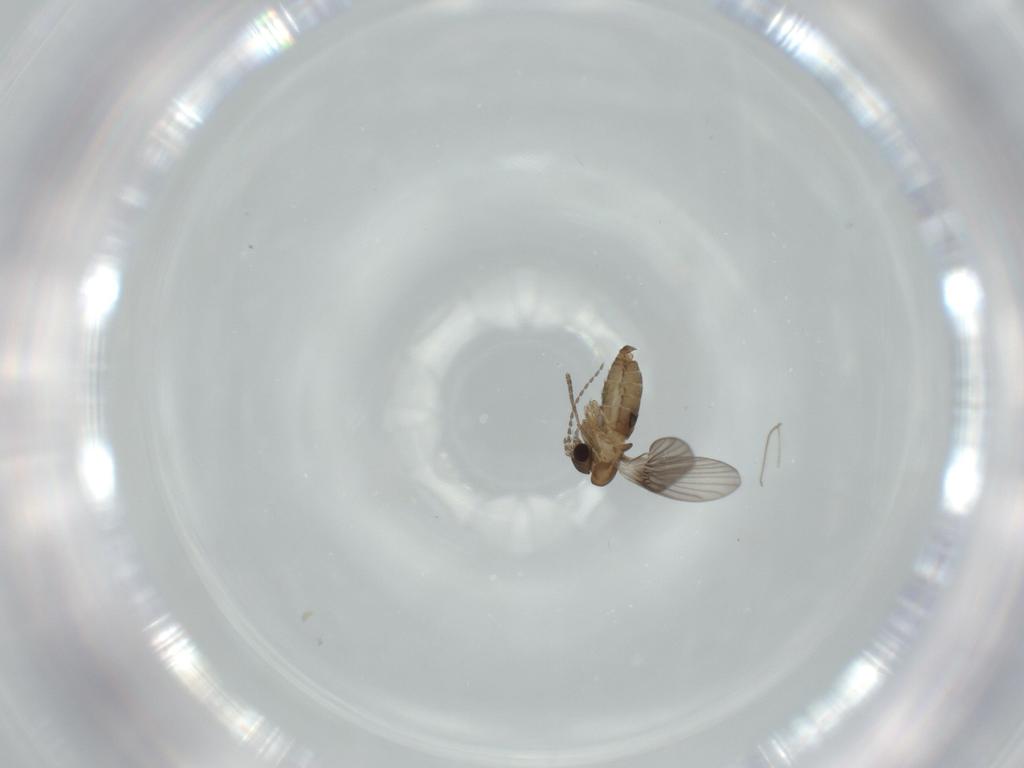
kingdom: Animalia
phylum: Arthropoda
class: Insecta
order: Diptera
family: Psychodidae
